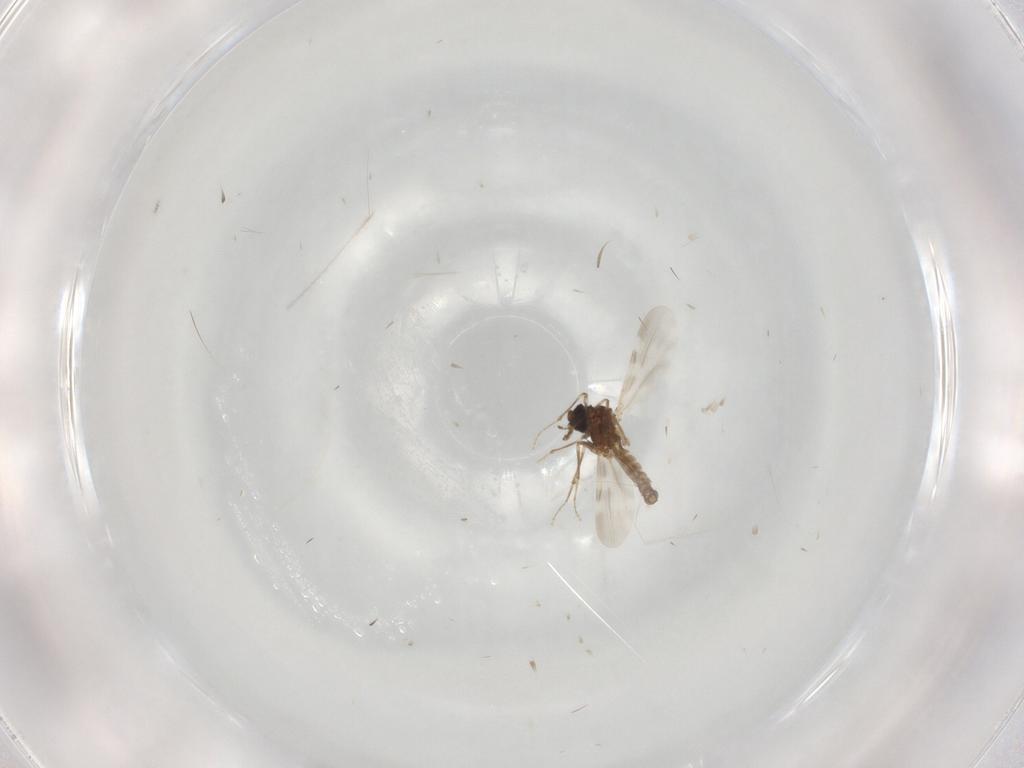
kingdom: Animalia
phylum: Arthropoda
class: Insecta
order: Diptera
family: Ceratopogonidae
